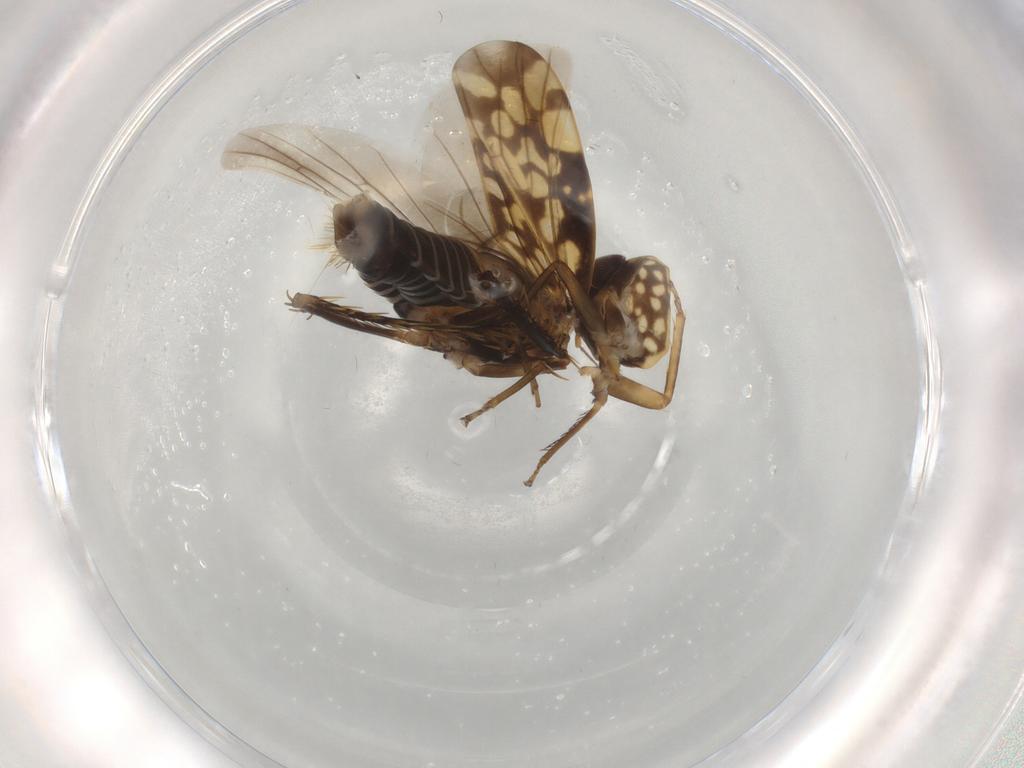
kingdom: Animalia
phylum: Arthropoda
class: Insecta
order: Hemiptera
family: Cicadellidae
